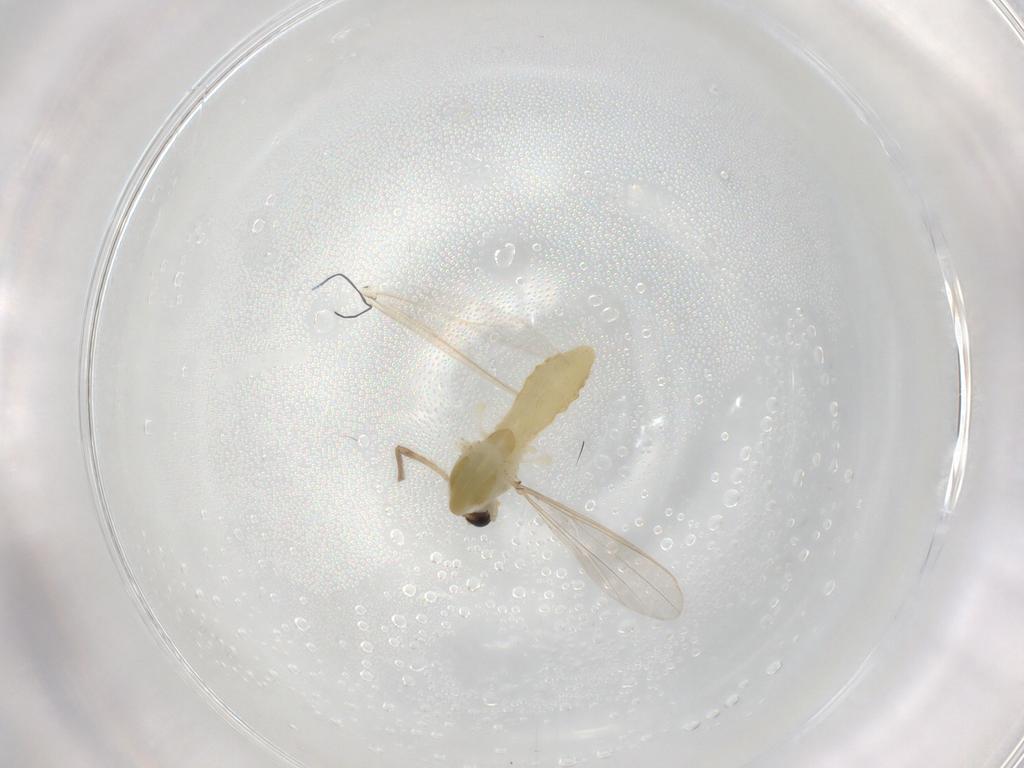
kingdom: Animalia
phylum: Arthropoda
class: Insecta
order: Diptera
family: Chironomidae
